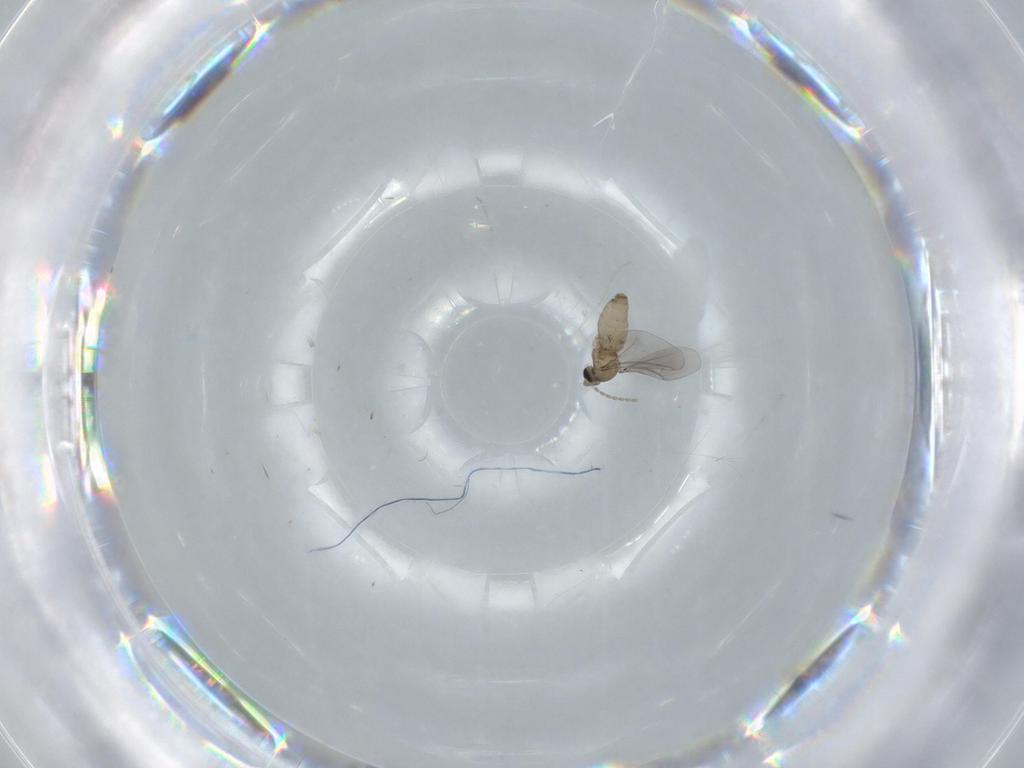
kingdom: Animalia
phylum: Arthropoda
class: Insecta
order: Diptera
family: Cecidomyiidae
